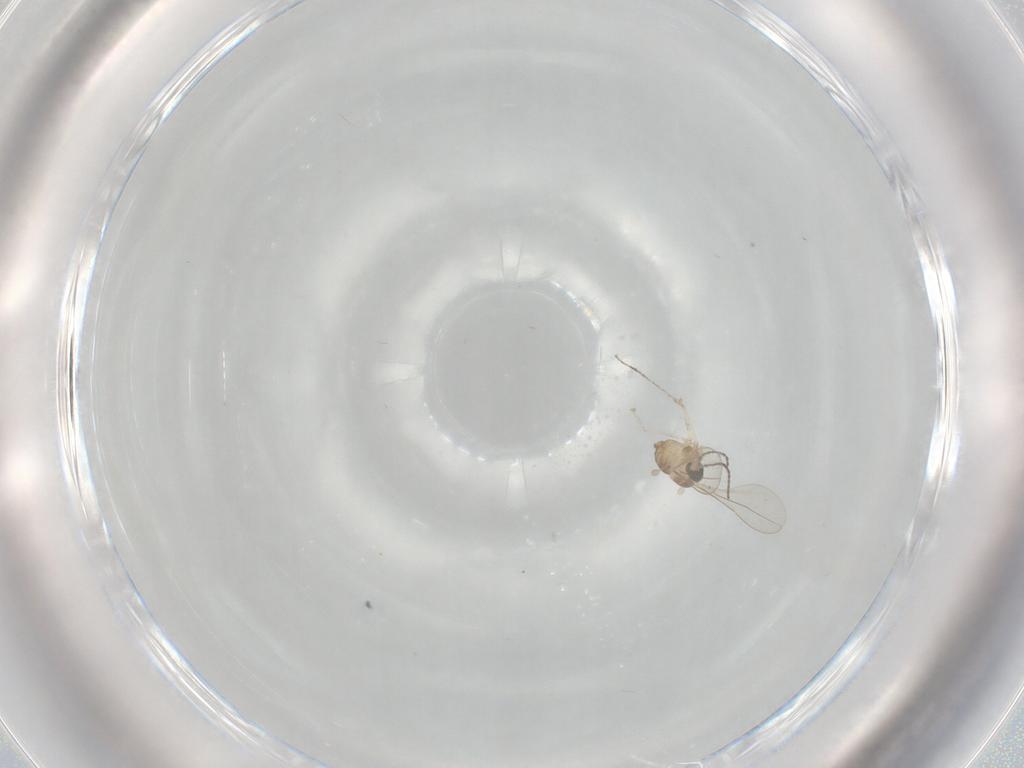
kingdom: Animalia
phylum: Arthropoda
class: Insecta
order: Diptera
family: Cecidomyiidae
